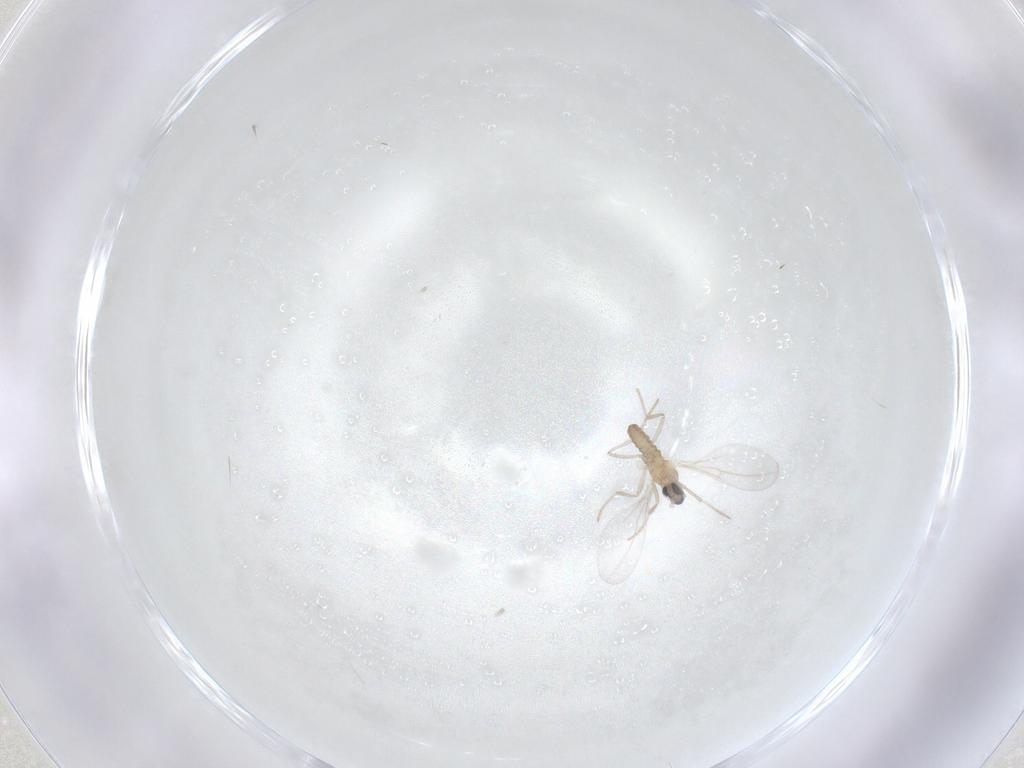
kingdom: Animalia
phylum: Arthropoda
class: Insecta
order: Diptera
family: Cecidomyiidae
